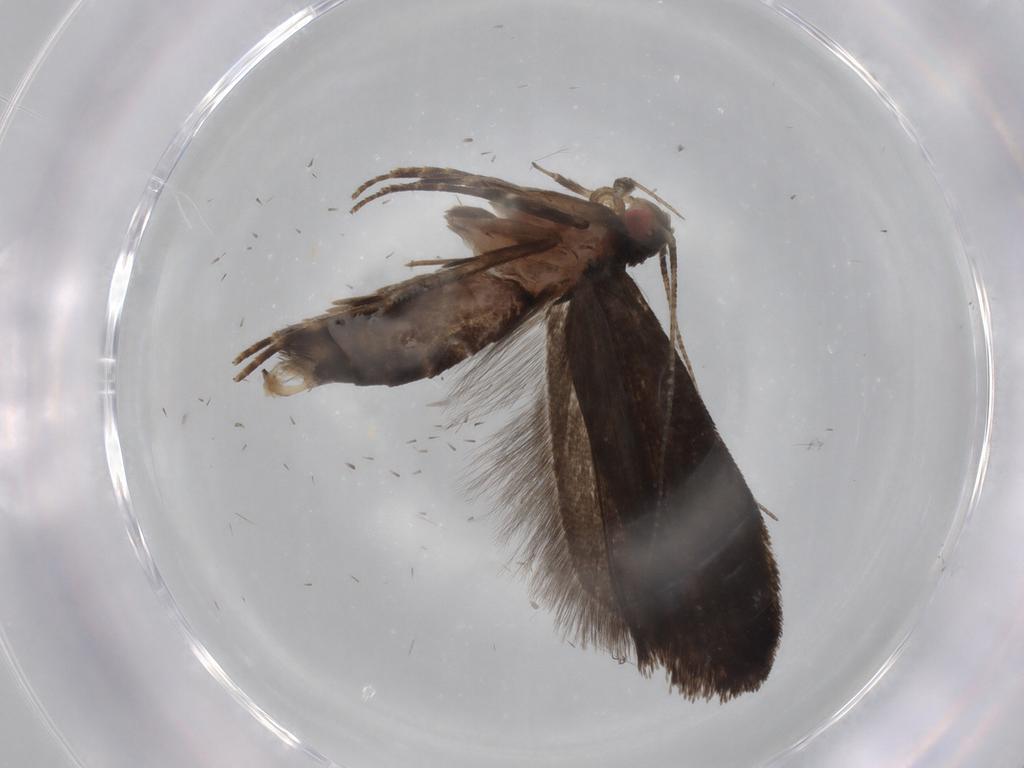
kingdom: Animalia
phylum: Arthropoda
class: Insecta
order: Lepidoptera
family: Gelechiidae
